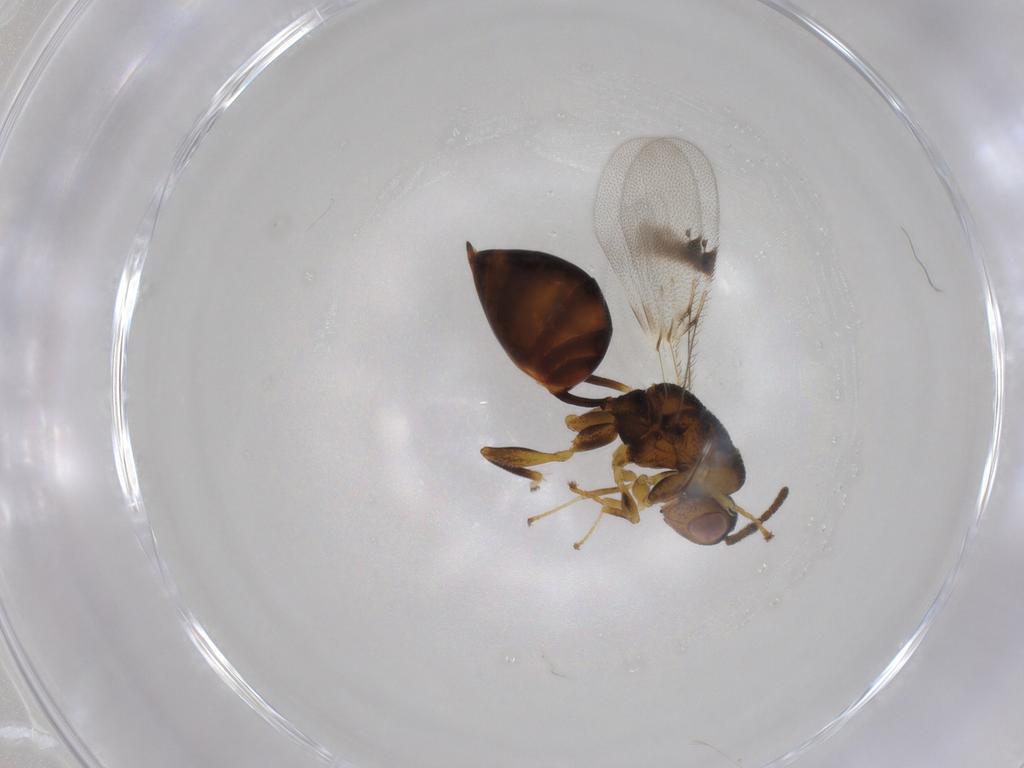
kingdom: Animalia
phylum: Arthropoda
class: Insecta
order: Hymenoptera
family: Eurytomidae
